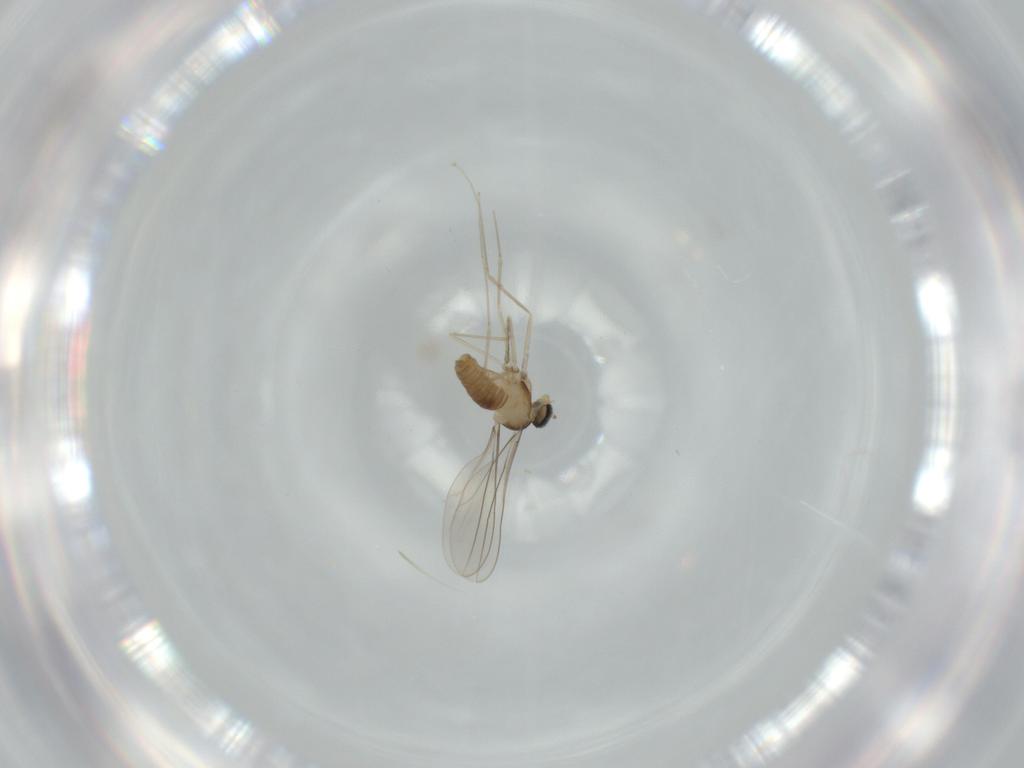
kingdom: Animalia
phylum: Arthropoda
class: Insecta
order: Diptera
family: Cecidomyiidae
